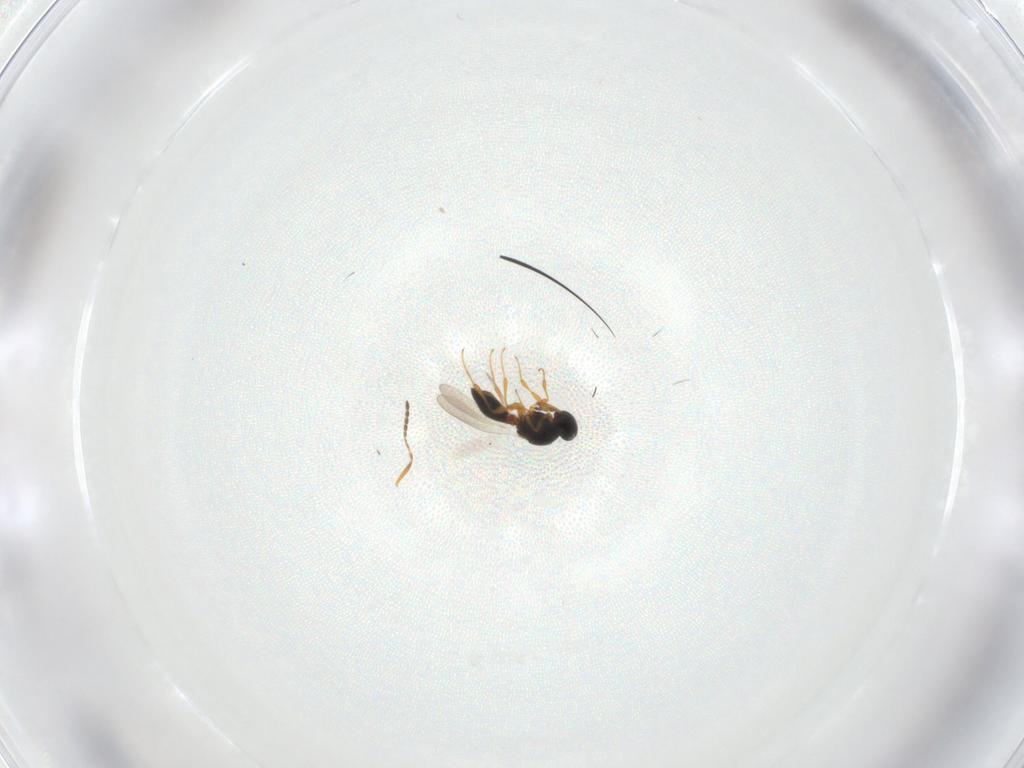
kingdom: Animalia
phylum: Arthropoda
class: Insecta
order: Hymenoptera
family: Platygastridae
